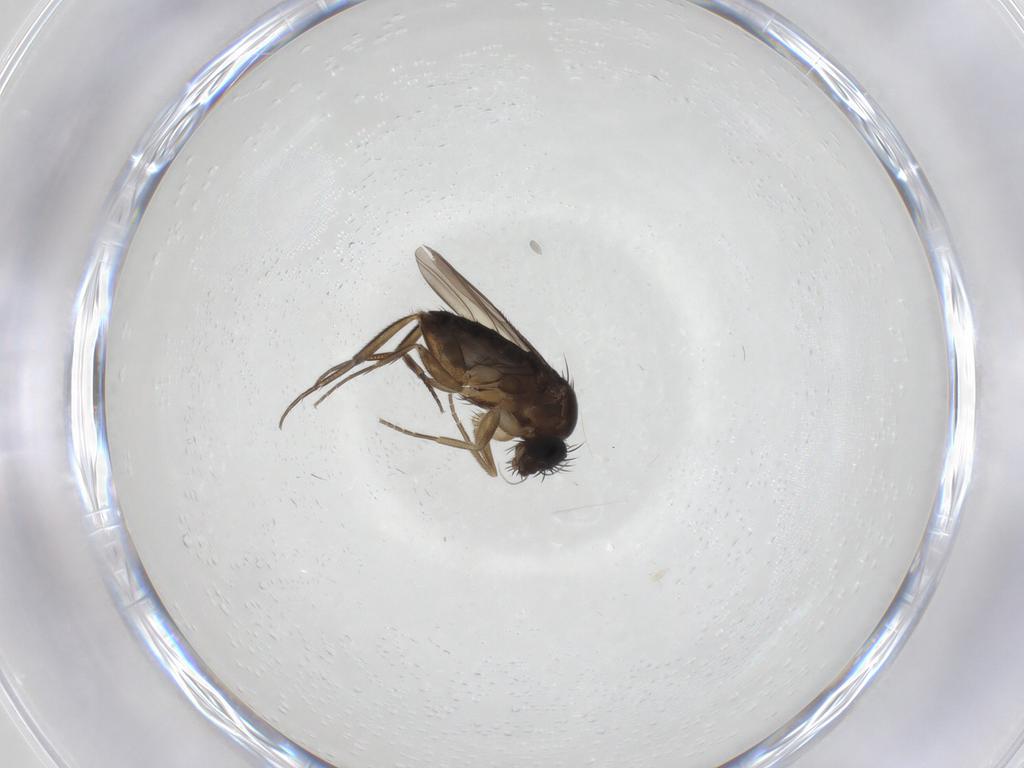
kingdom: Animalia
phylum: Arthropoda
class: Insecta
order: Diptera
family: Phoridae
